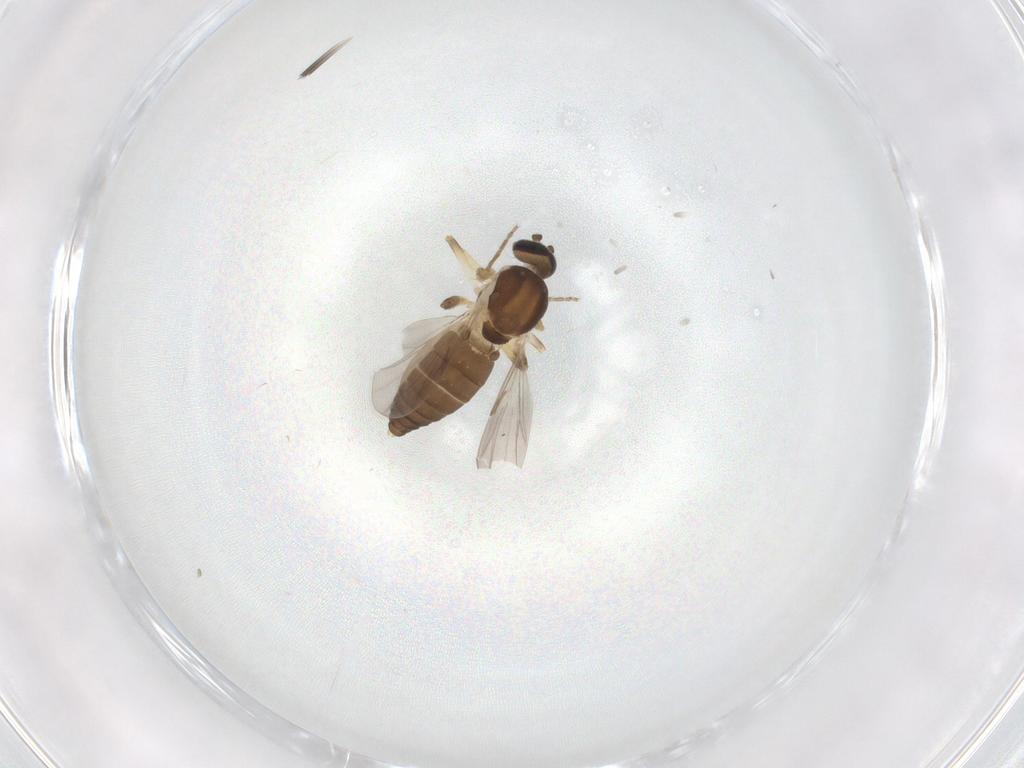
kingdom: Animalia
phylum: Arthropoda
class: Insecta
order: Diptera
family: Ceratopogonidae
